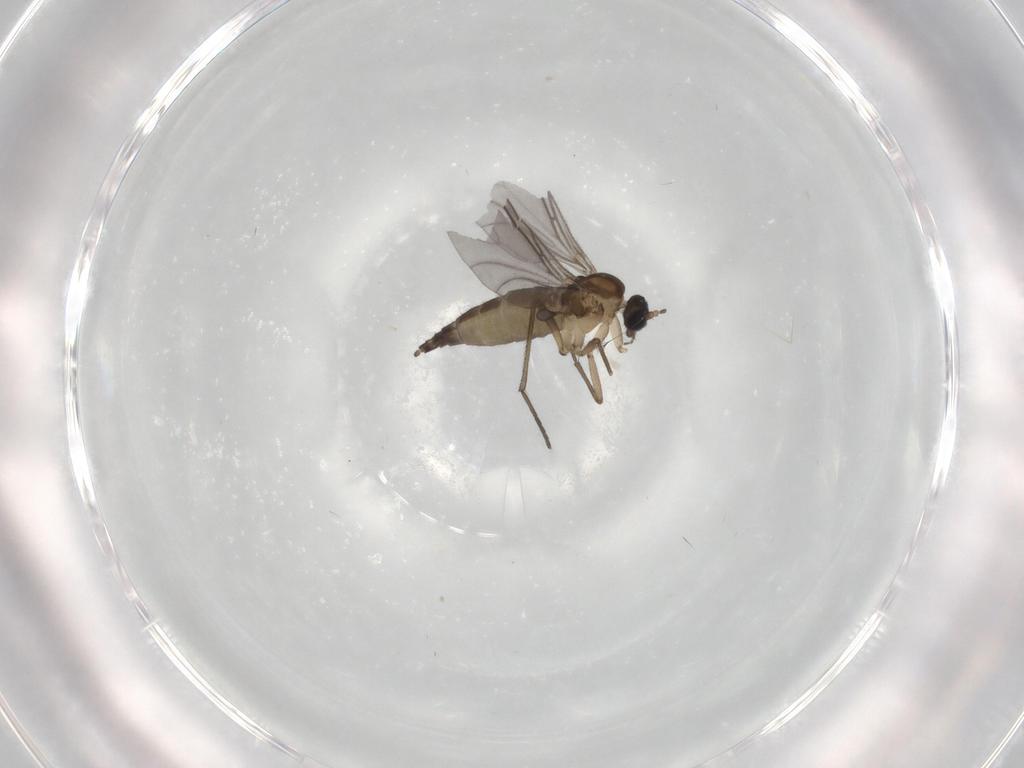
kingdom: Animalia
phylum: Arthropoda
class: Insecta
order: Diptera
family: Sciaridae
